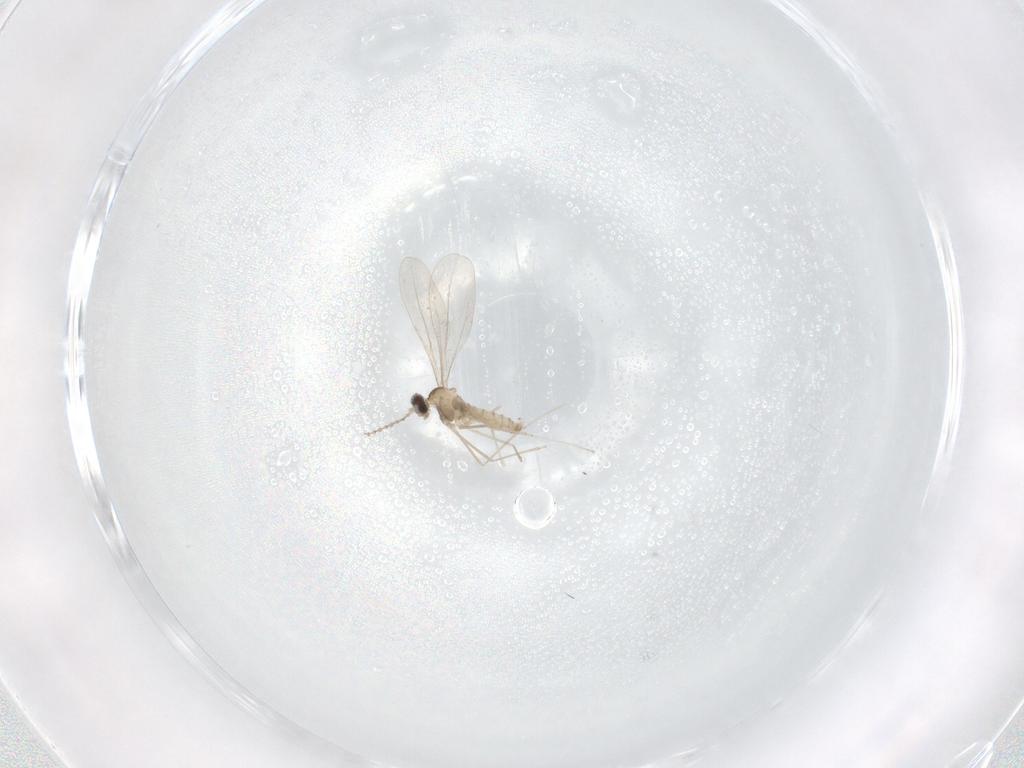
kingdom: Animalia
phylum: Arthropoda
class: Insecta
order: Diptera
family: Cecidomyiidae
